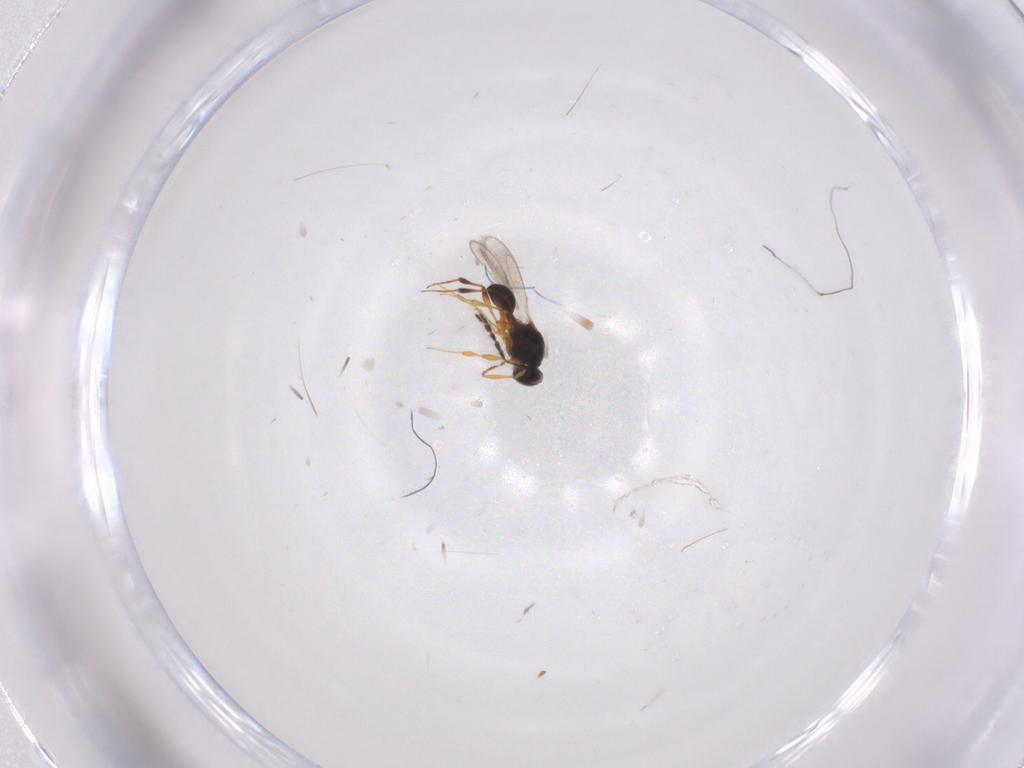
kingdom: Animalia
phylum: Arthropoda
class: Insecta
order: Hymenoptera
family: Platygastridae
